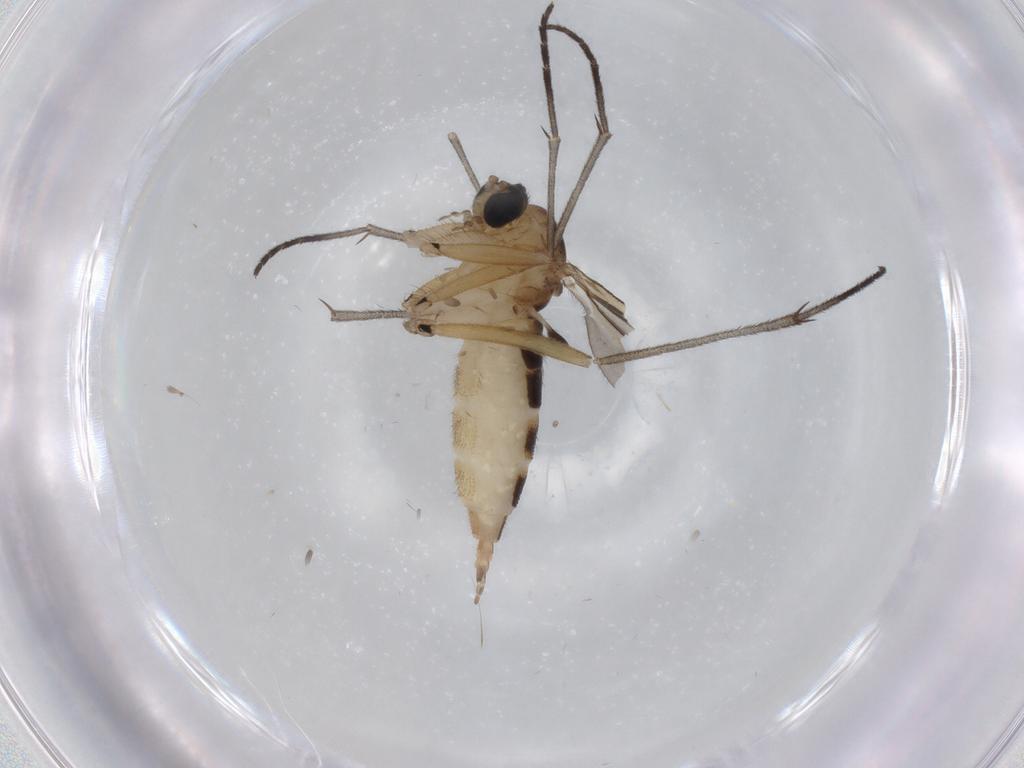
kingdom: Animalia
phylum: Arthropoda
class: Insecta
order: Diptera
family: Sciaridae
